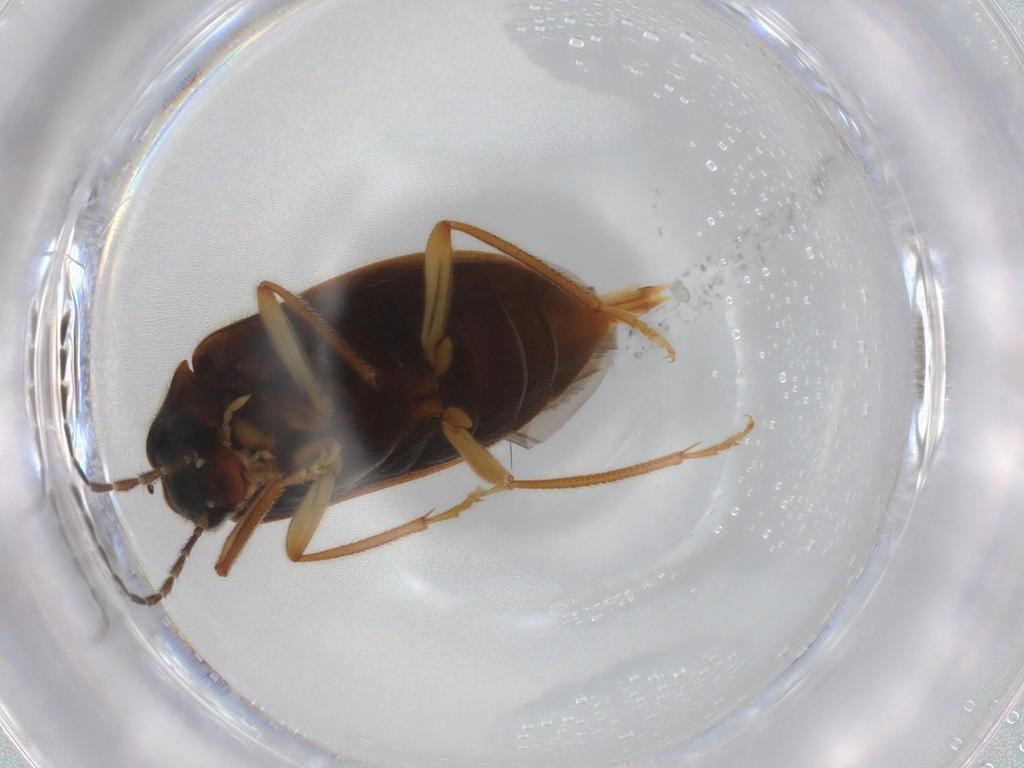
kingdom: Animalia
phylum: Arthropoda
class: Insecta
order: Coleoptera
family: Ptilodactylidae
